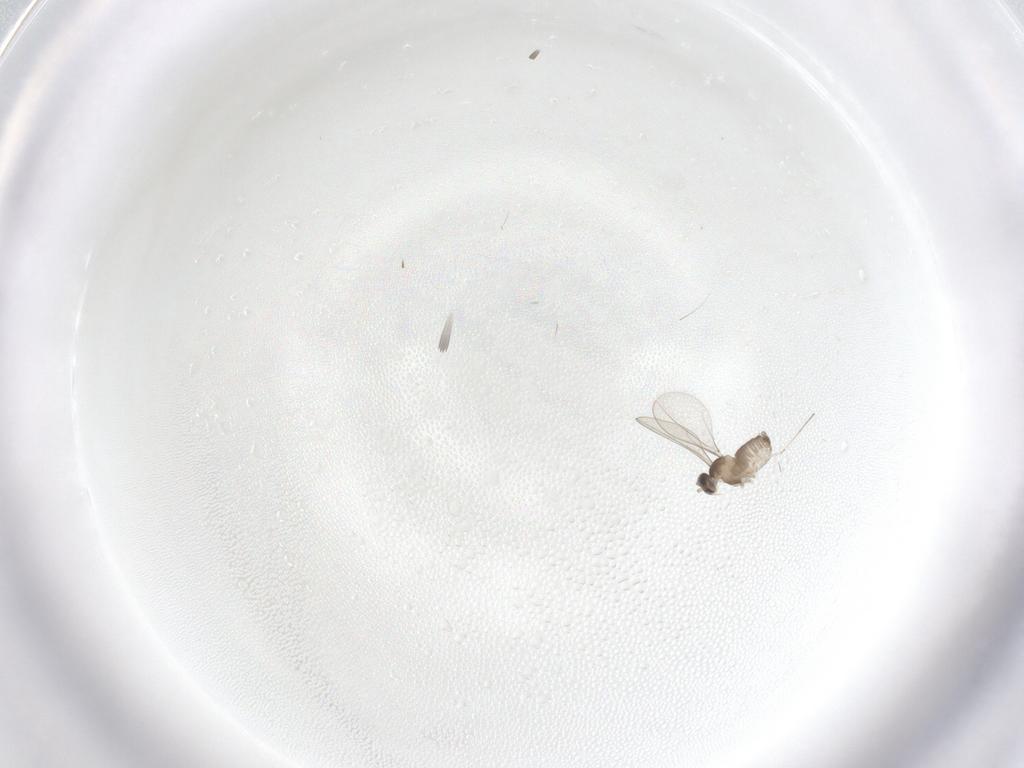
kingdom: Animalia
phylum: Arthropoda
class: Insecta
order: Diptera
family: Cecidomyiidae
